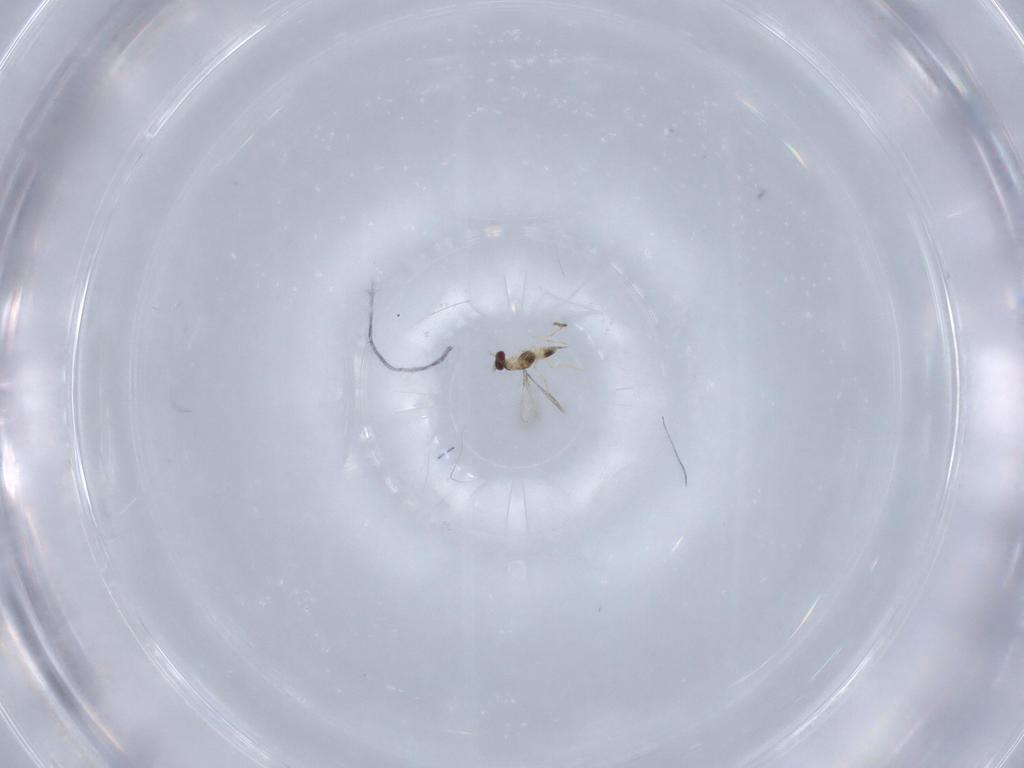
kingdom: Animalia
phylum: Arthropoda
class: Insecta
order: Hymenoptera
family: Mymaridae
